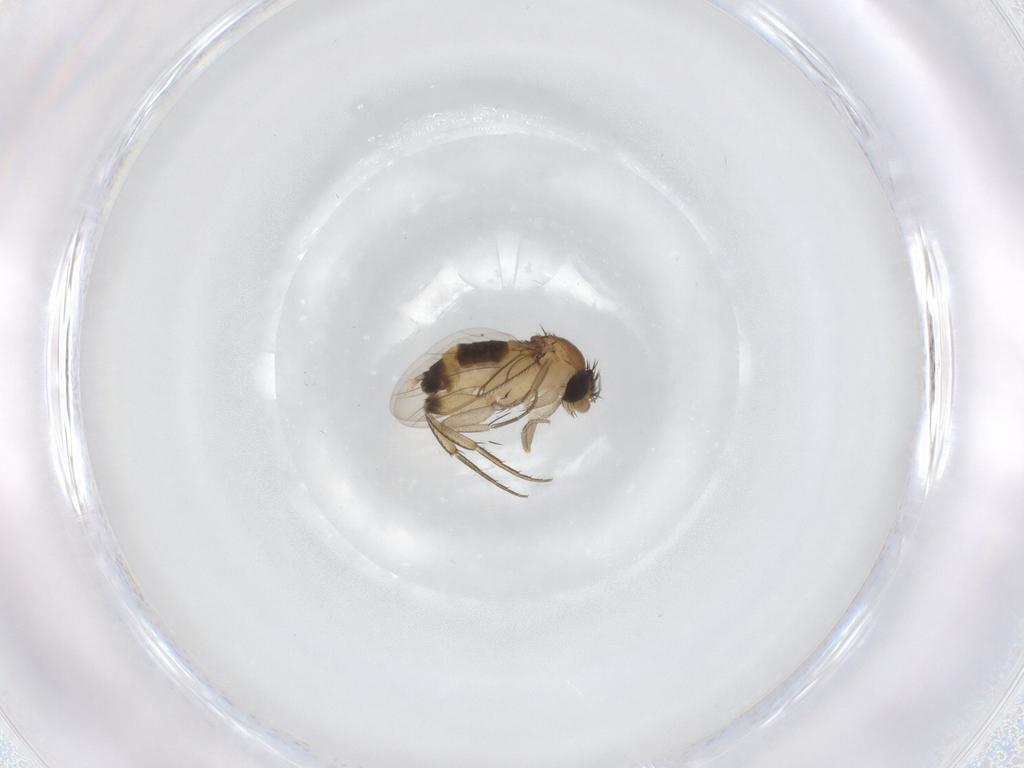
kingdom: Animalia
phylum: Arthropoda
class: Insecta
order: Diptera
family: Phoridae
